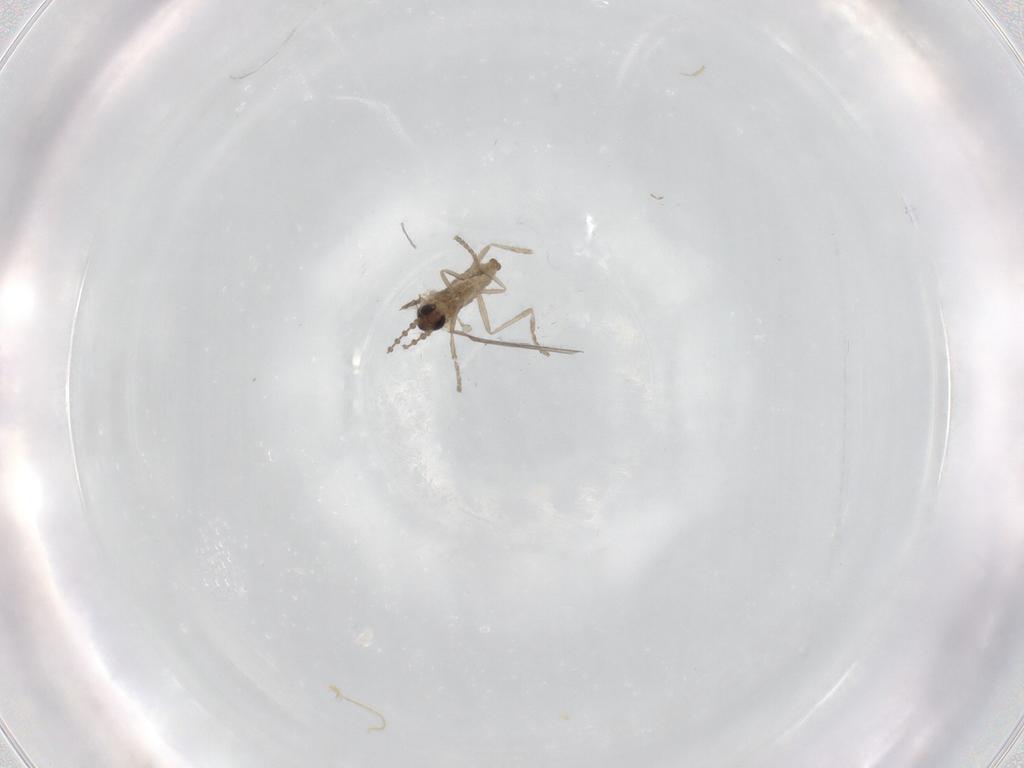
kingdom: Animalia
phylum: Arthropoda
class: Insecta
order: Diptera
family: Cecidomyiidae
